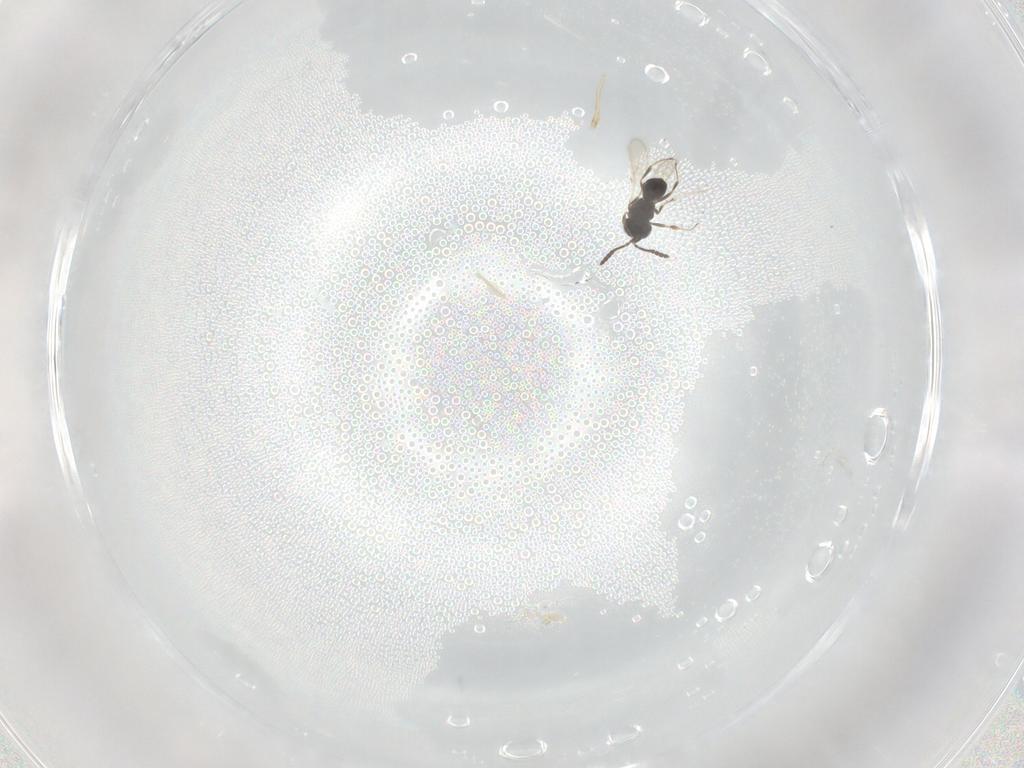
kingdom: Animalia
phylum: Arthropoda
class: Insecta
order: Hymenoptera
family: Scelionidae
